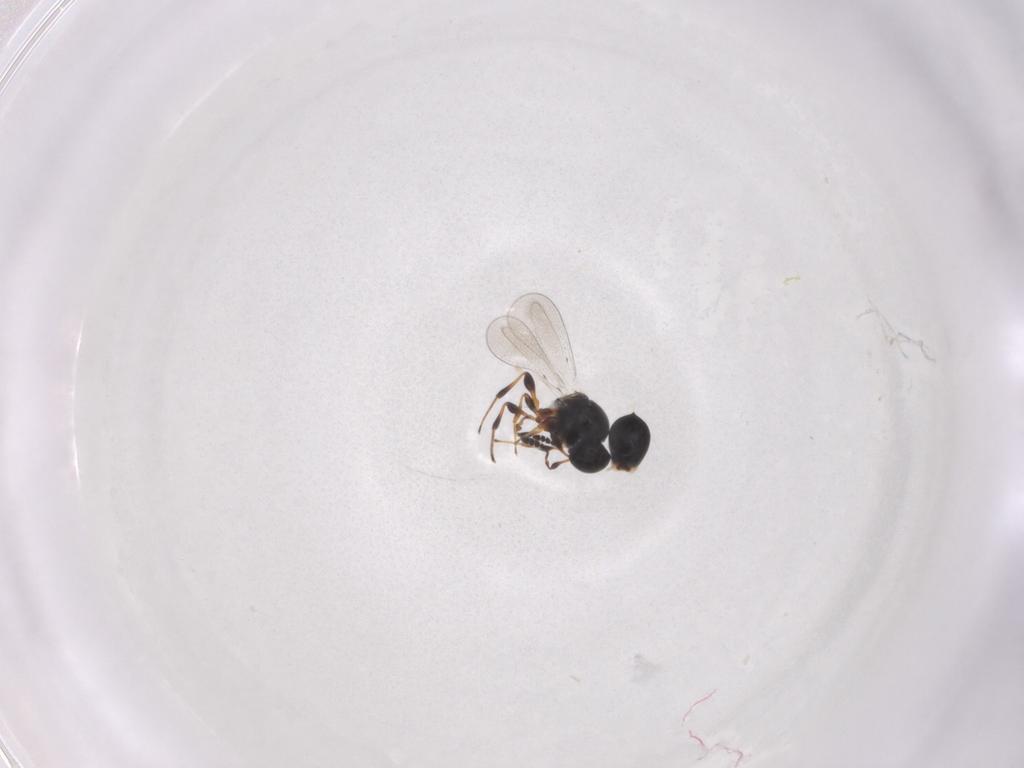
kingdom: Animalia
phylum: Arthropoda
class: Insecta
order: Hymenoptera
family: Platygastridae
